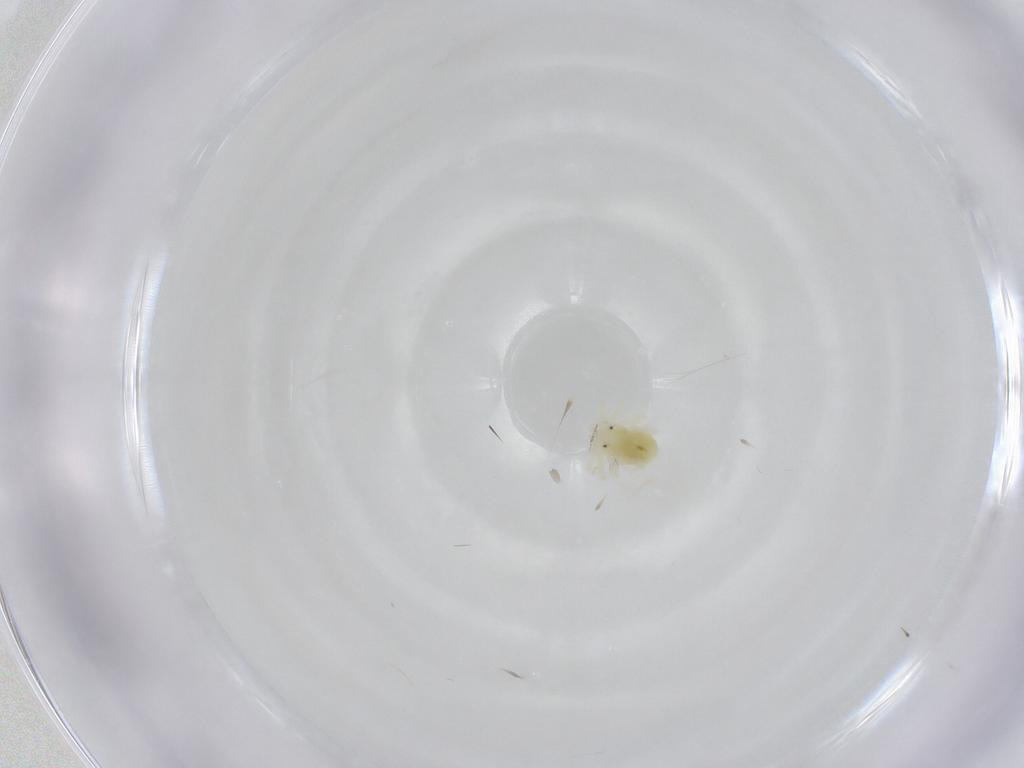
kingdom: Animalia
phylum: Arthropoda
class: Arachnida
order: Trombidiformes
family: Anystidae
